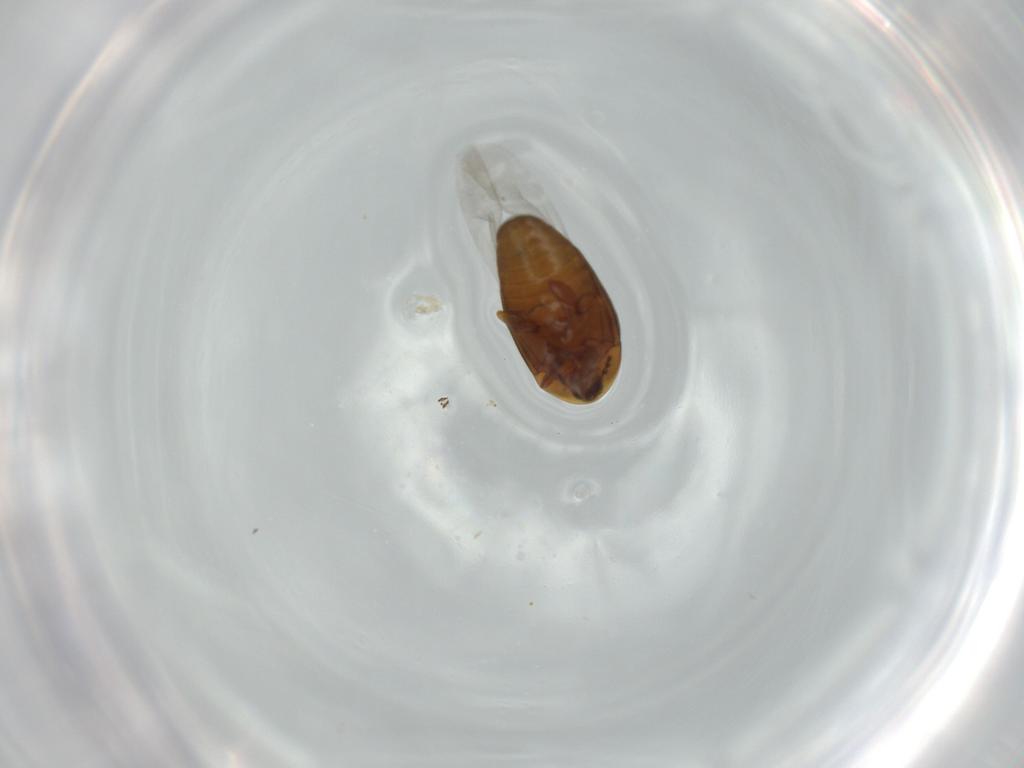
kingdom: Animalia
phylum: Arthropoda
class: Insecta
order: Coleoptera
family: Corylophidae
